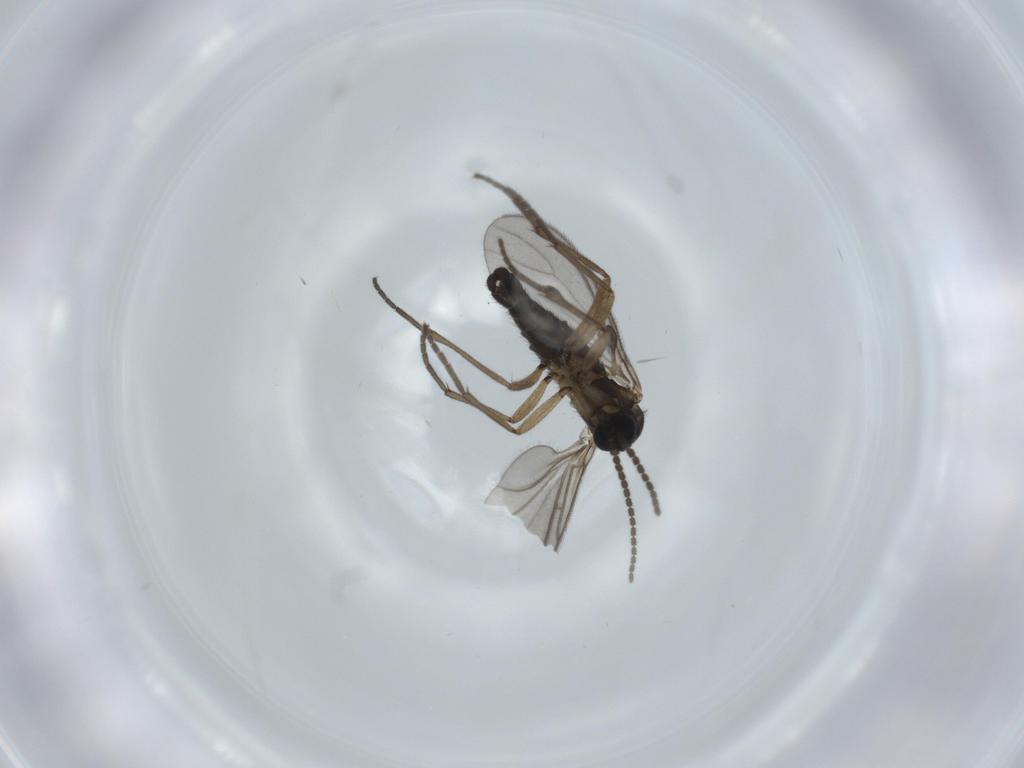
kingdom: Animalia
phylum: Arthropoda
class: Insecta
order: Diptera
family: Sciaridae
